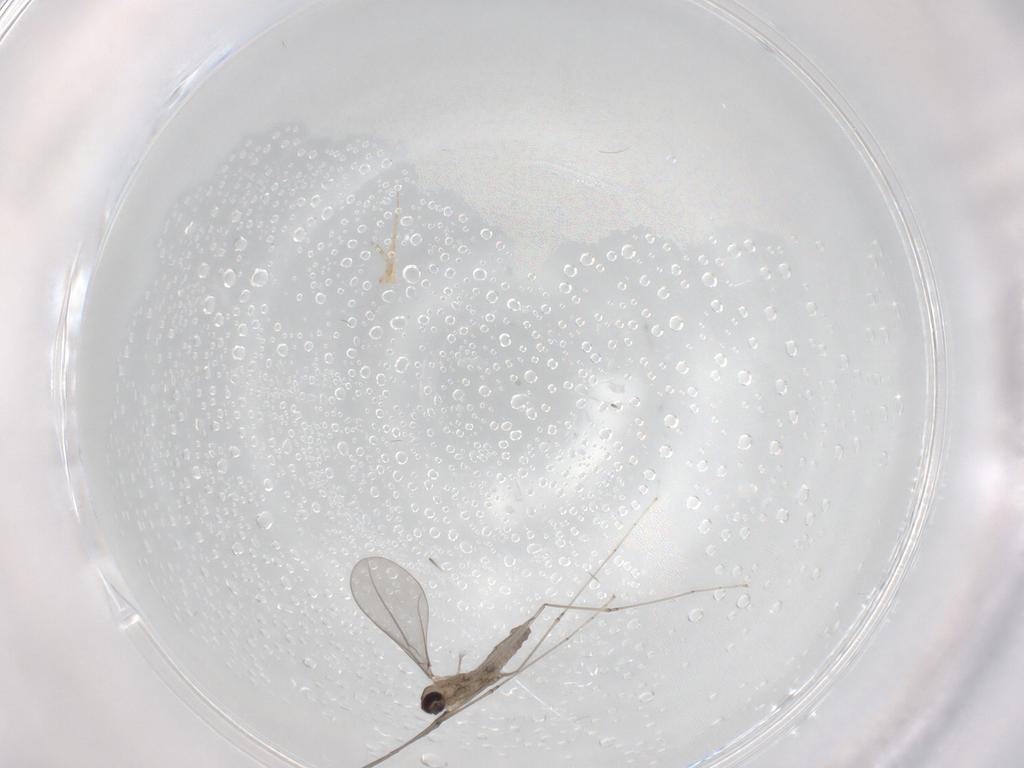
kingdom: Animalia
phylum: Arthropoda
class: Insecta
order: Diptera
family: Cecidomyiidae
